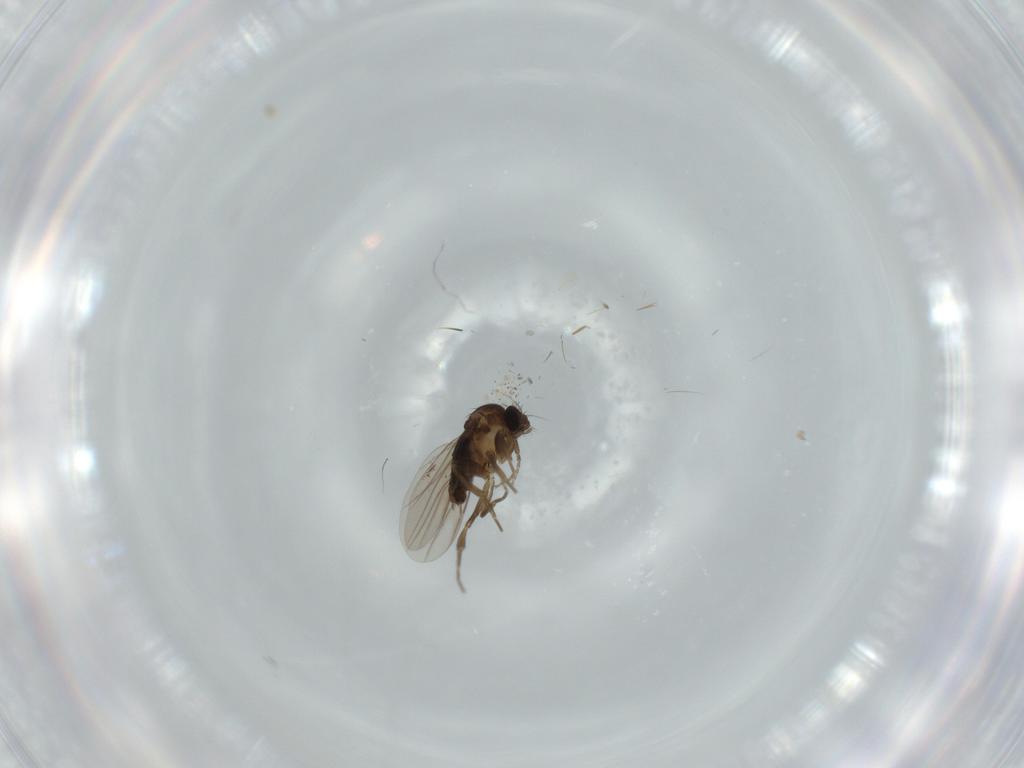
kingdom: Animalia
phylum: Arthropoda
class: Insecta
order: Diptera
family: Phoridae
